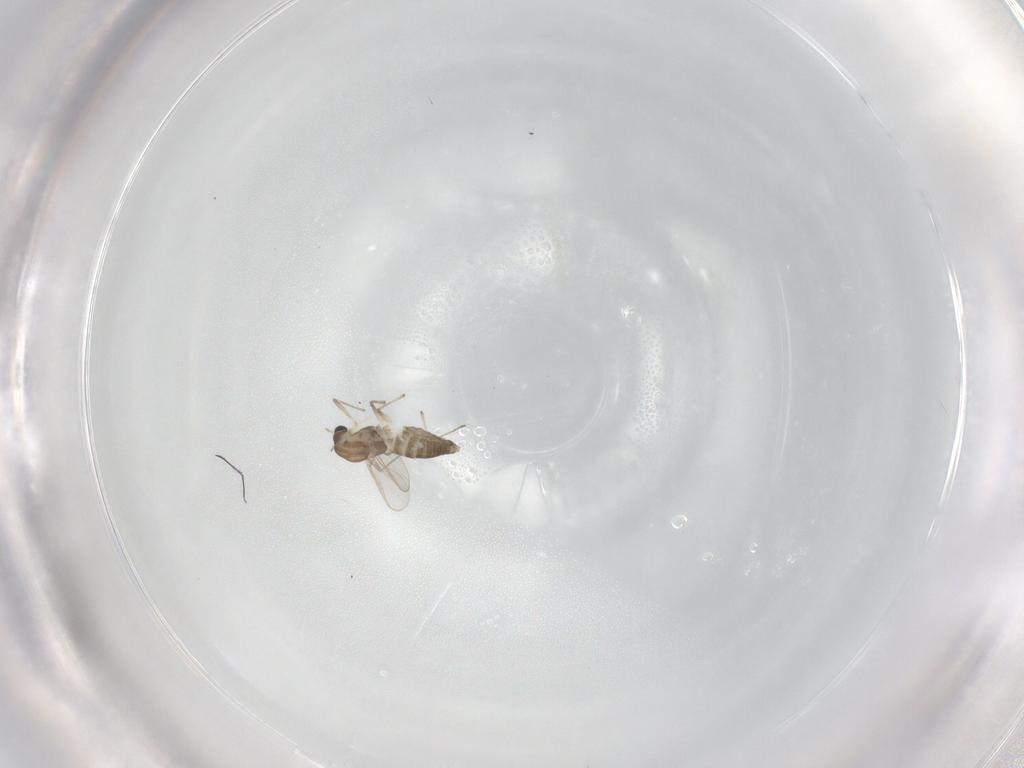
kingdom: Animalia
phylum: Arthropoda
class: Insecta
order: Diptera
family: Chironomidae
